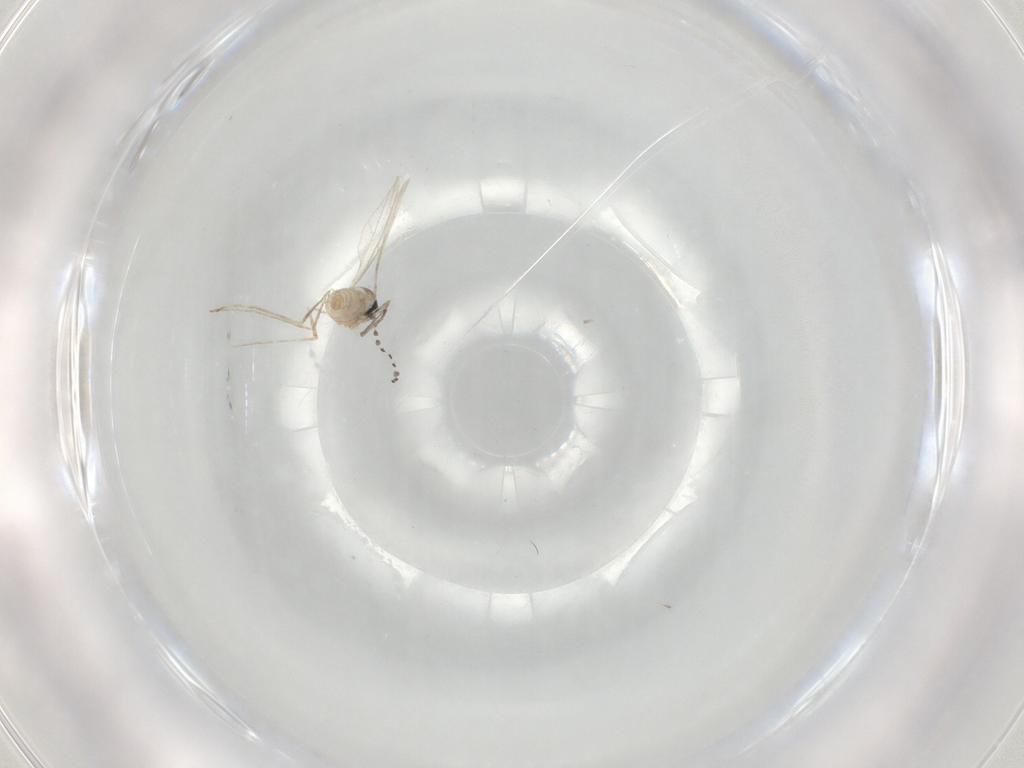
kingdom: Animalia
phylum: Arthropoda
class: Insecta
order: Diptera
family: Cecidomyiidae
